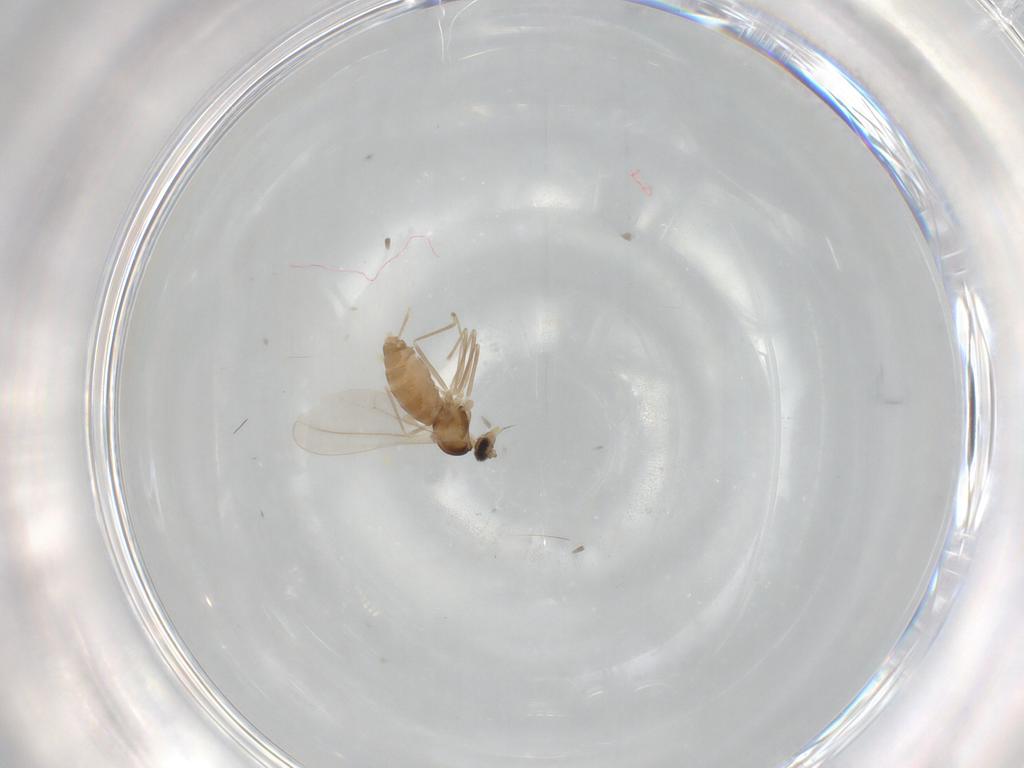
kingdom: Animalia
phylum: Arthropoda
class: Insecta
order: Diptera
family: Cecidomyiidae
